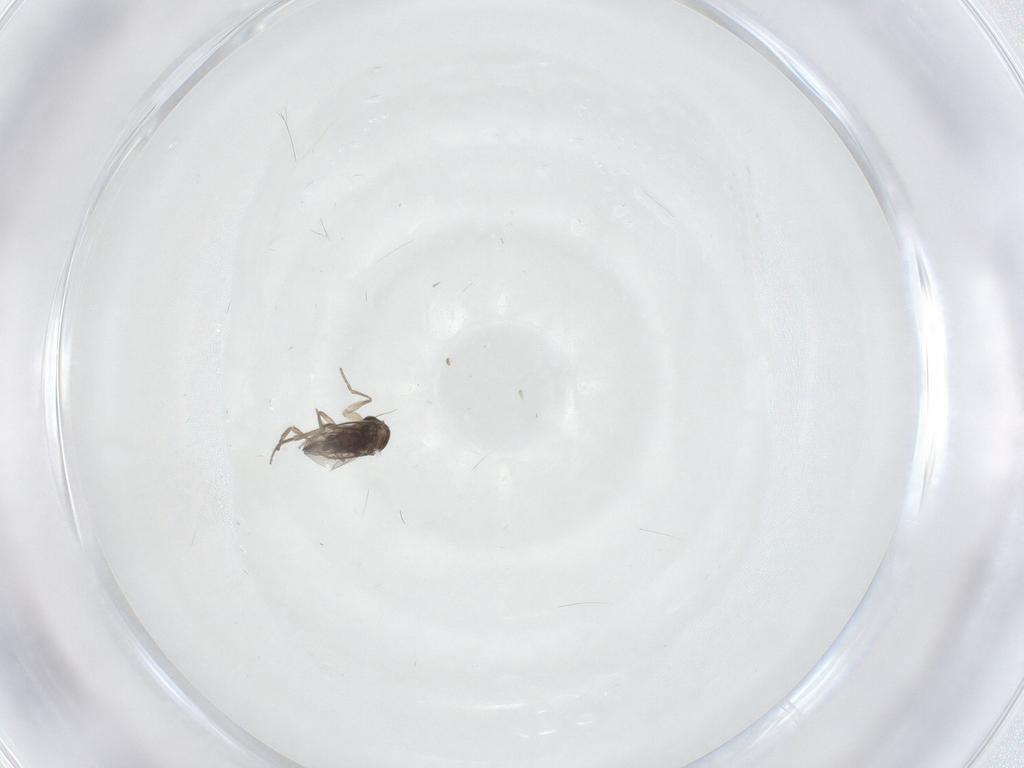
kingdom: Animalia
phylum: Arthropoda
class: Insecta
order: Diptera
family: Phoridae
